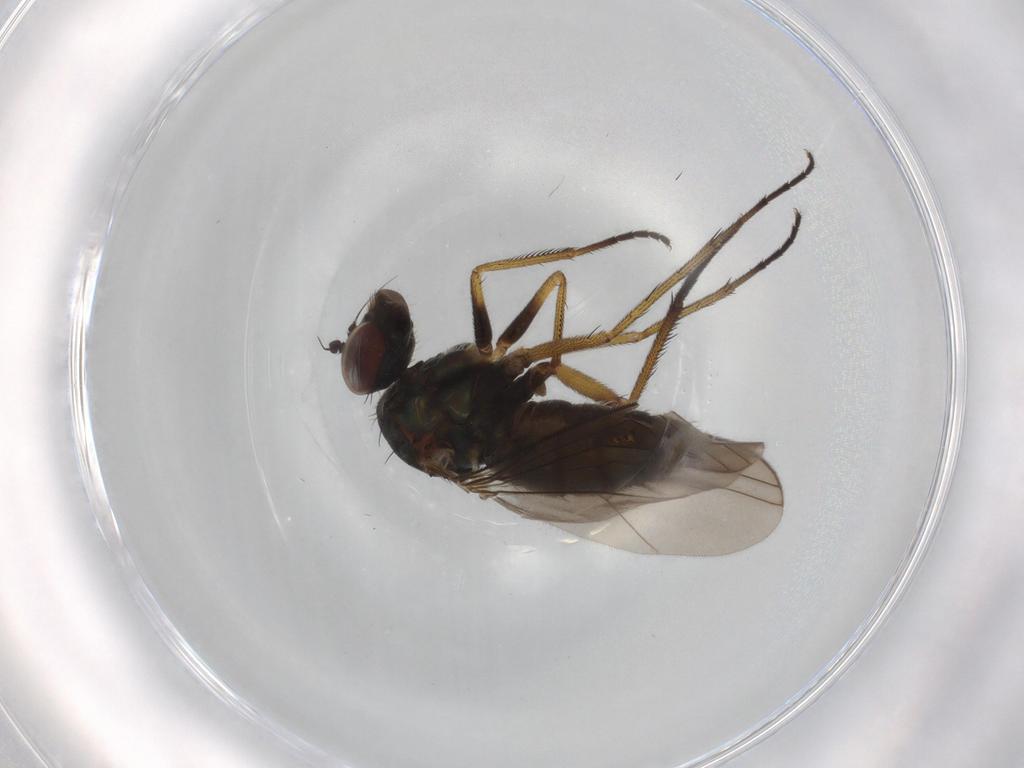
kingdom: Animalia
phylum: Arthropoda
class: Insecta
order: Diptera
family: Dolichopodidae
